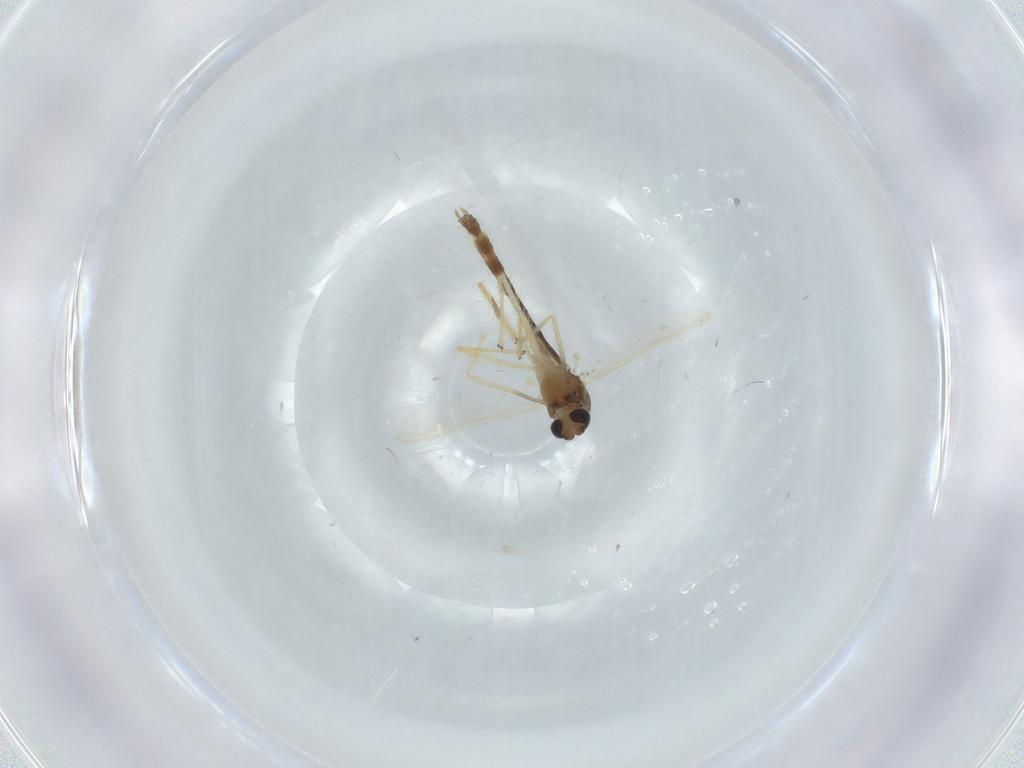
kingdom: Animalia
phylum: Arthropoda
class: Insecta
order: Diptera
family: Chironomidae
